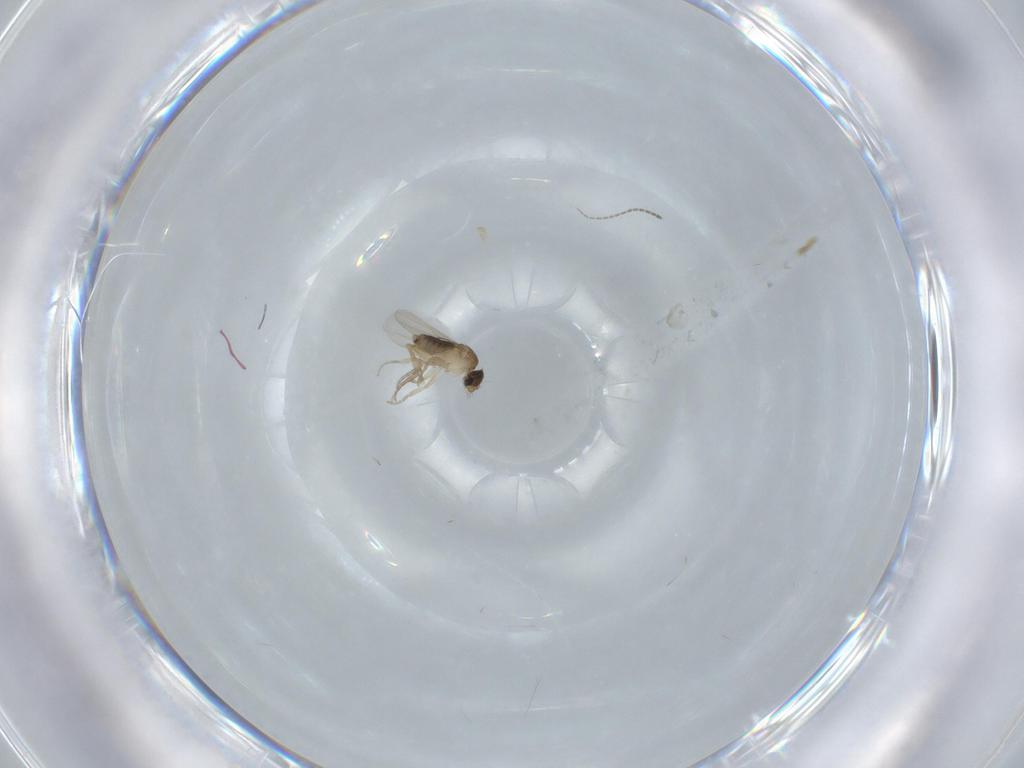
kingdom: Animalia
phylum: Arthropoda
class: Insecta
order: Diptera
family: Phoridae
